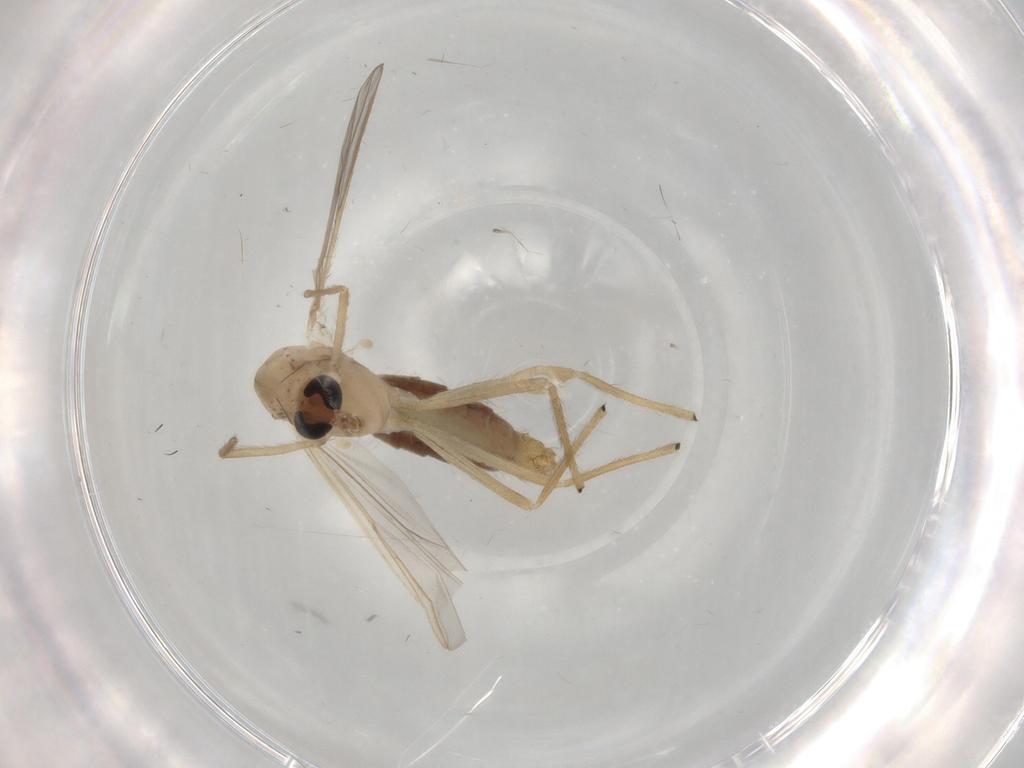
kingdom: Animalia
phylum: Arthropoda
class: Insecta
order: Diptera
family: Chironomidae
